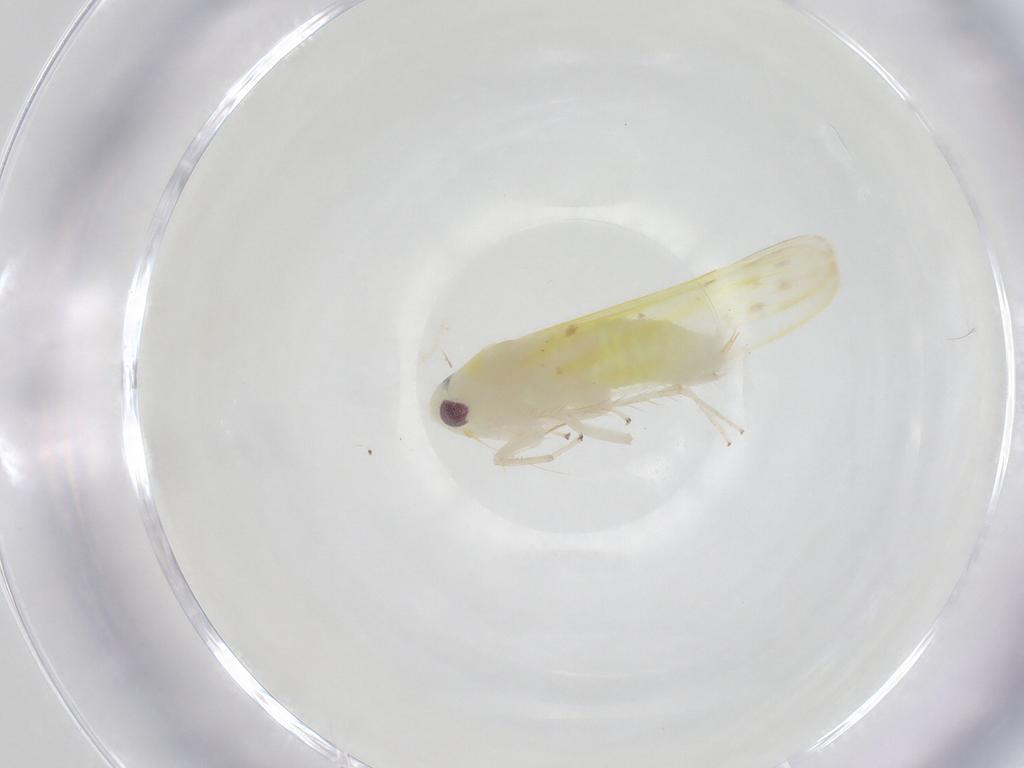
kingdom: Animalia
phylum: Arthropoda
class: Insecta
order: Hemiptera
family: Cicadellidae
